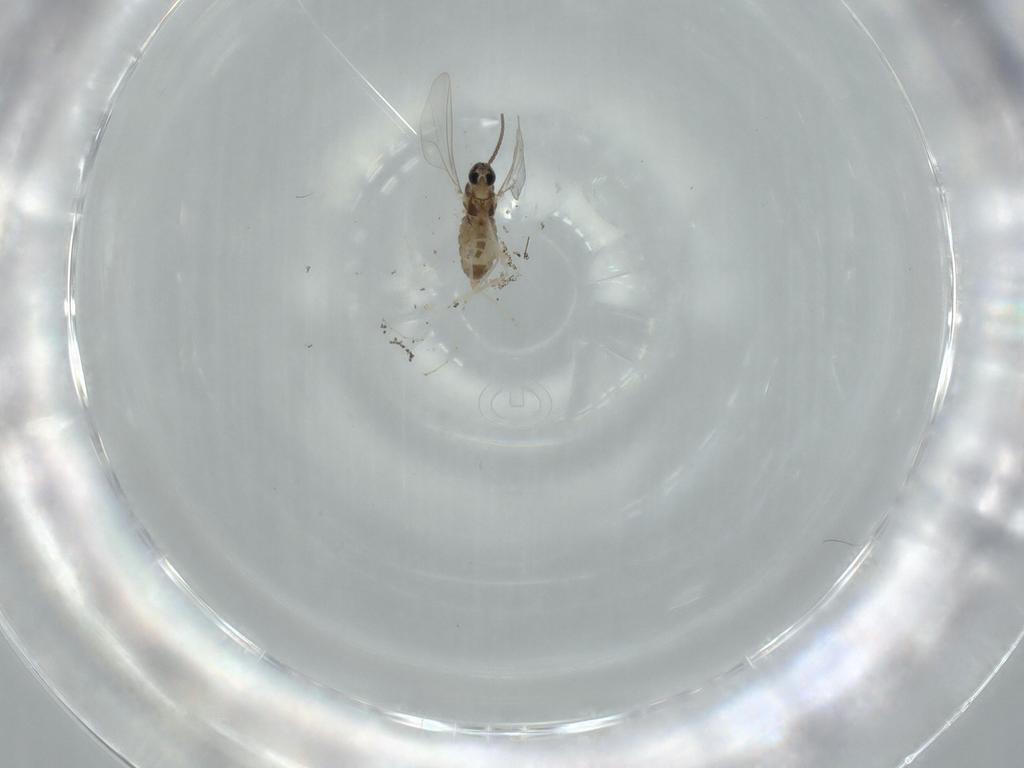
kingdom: Animalia
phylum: Arthropoda
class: Insecta
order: Diptera
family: Cecidomyiidae
